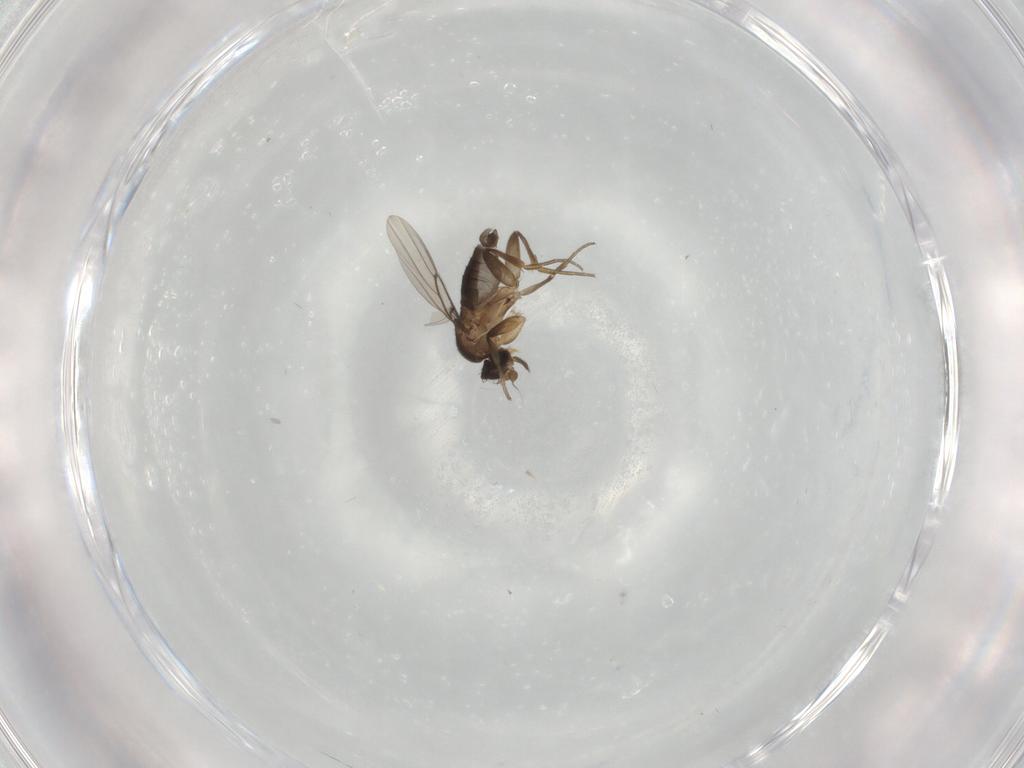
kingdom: Animalia
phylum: Arthropoda
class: Insecta
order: Diptera
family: Phoridae
